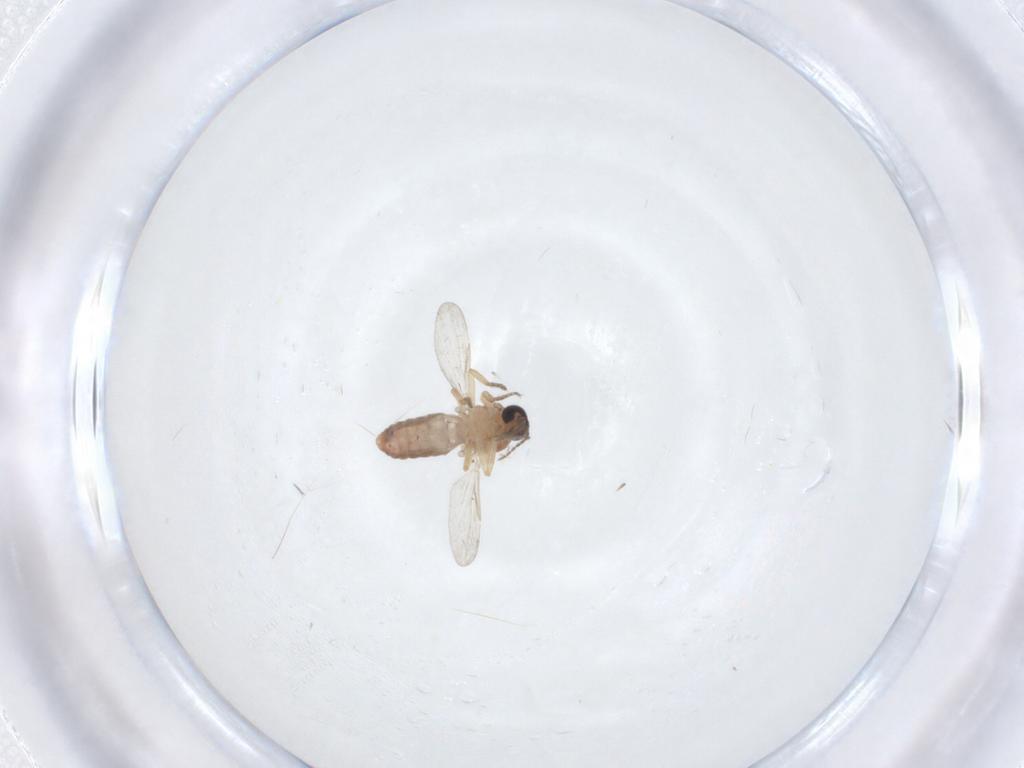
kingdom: Animalia
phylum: Arthropoda
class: Insecta
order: Diptera
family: Ceratopogonidae
